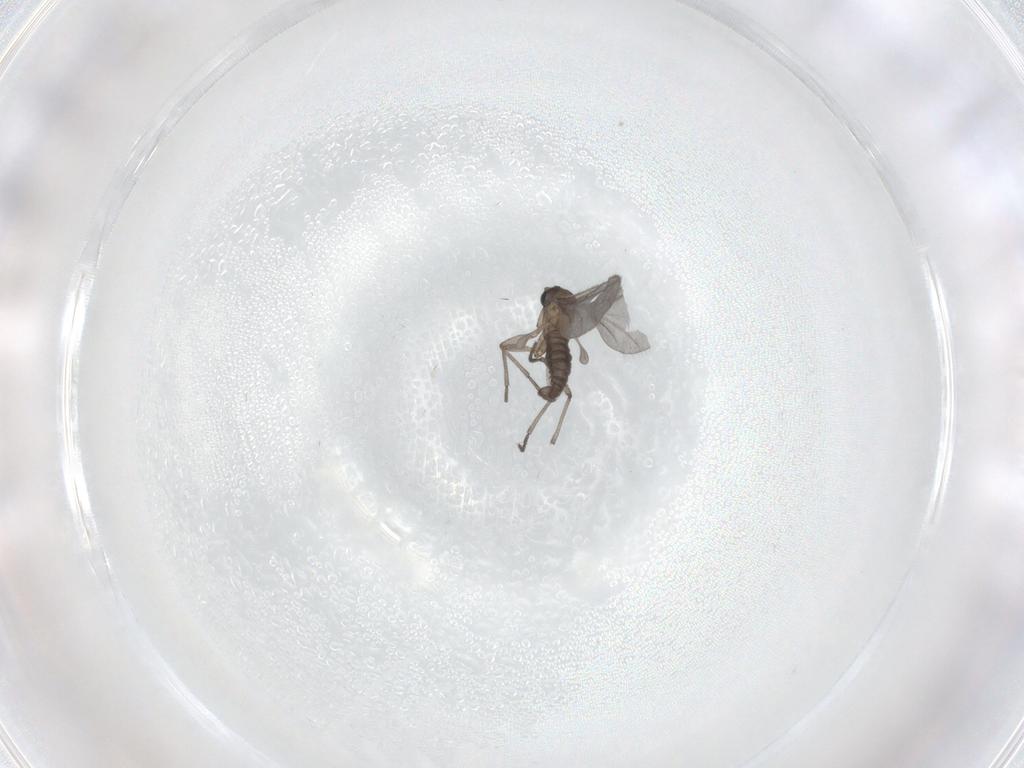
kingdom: Animalia
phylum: Arthropoda
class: Insecta
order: Diptera
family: Sciaridae
